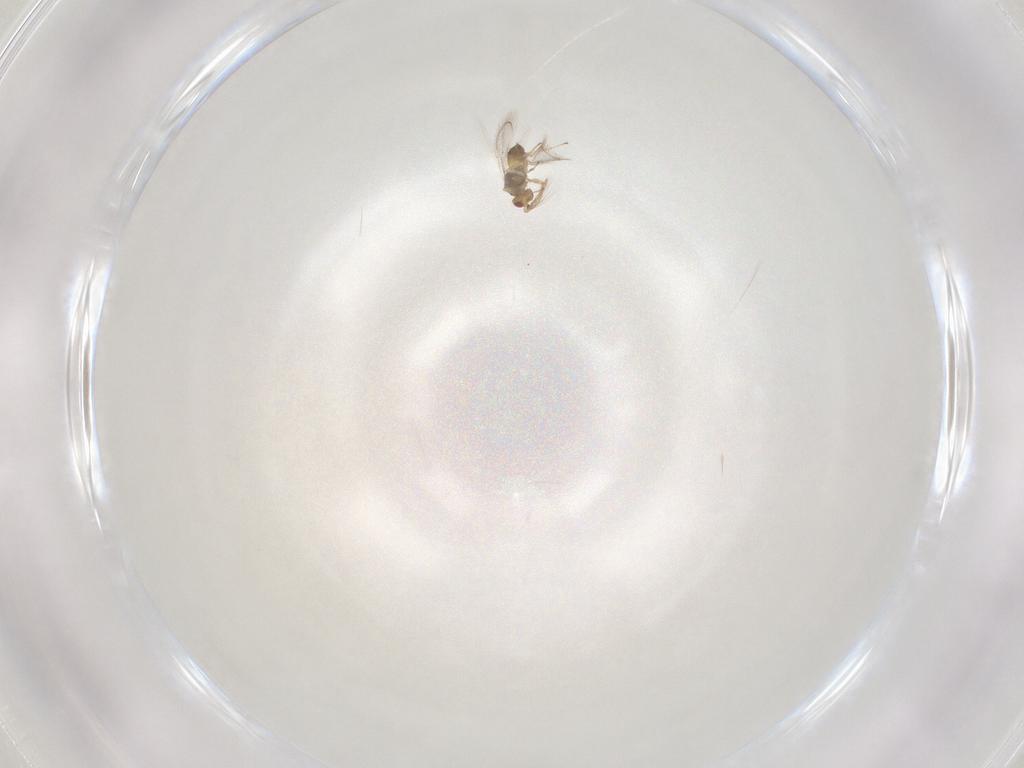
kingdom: Animalia
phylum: Arthropoda
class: Insecta
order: Hymenoptera
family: Eulophidae
